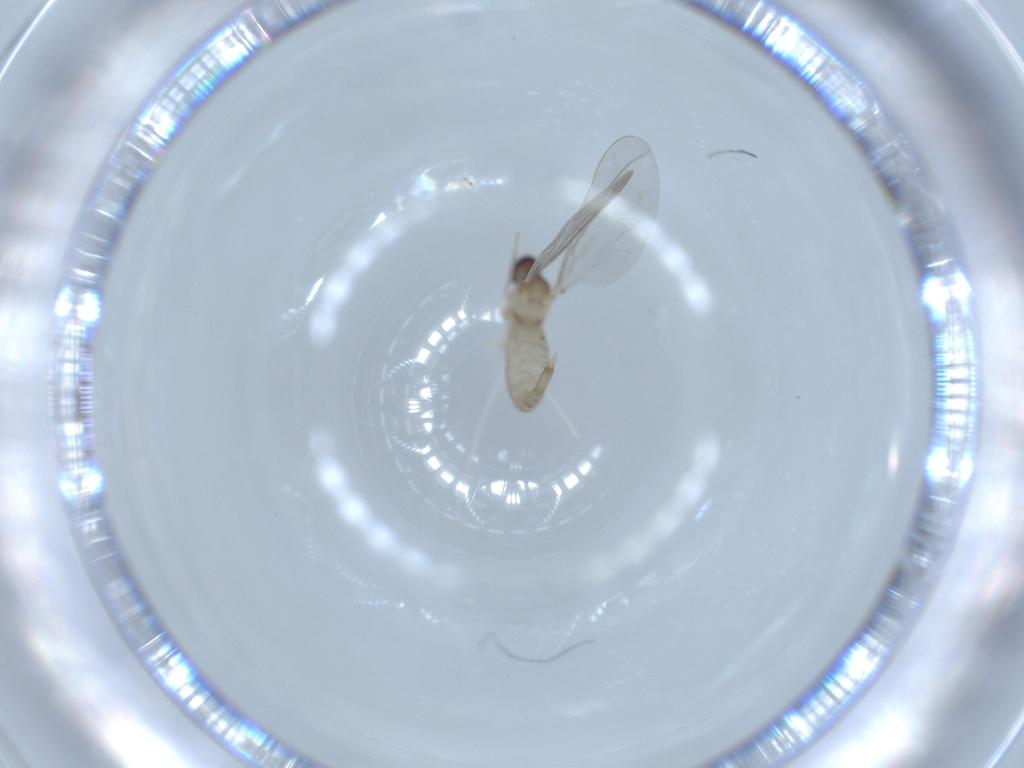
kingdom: Animalia
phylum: Arthropoda
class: Insecta
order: Diptera
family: Cecidomyiidae
